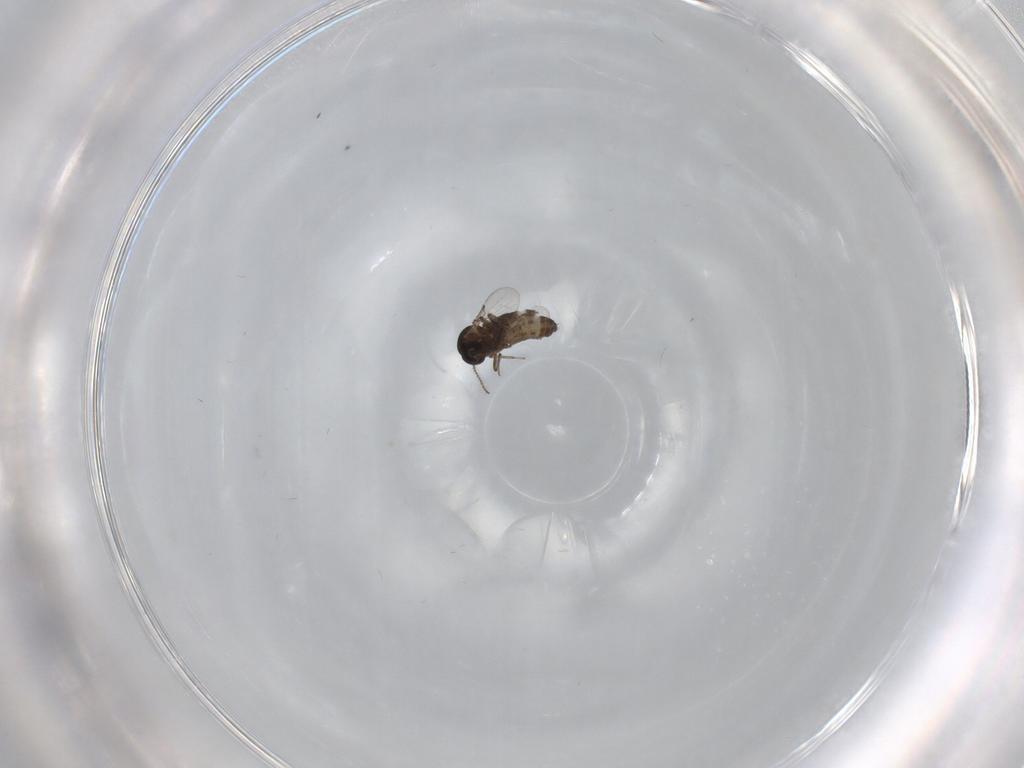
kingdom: Animalia
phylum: Arthropoda
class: Insecta
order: Diptera
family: Ceratopogonidae
